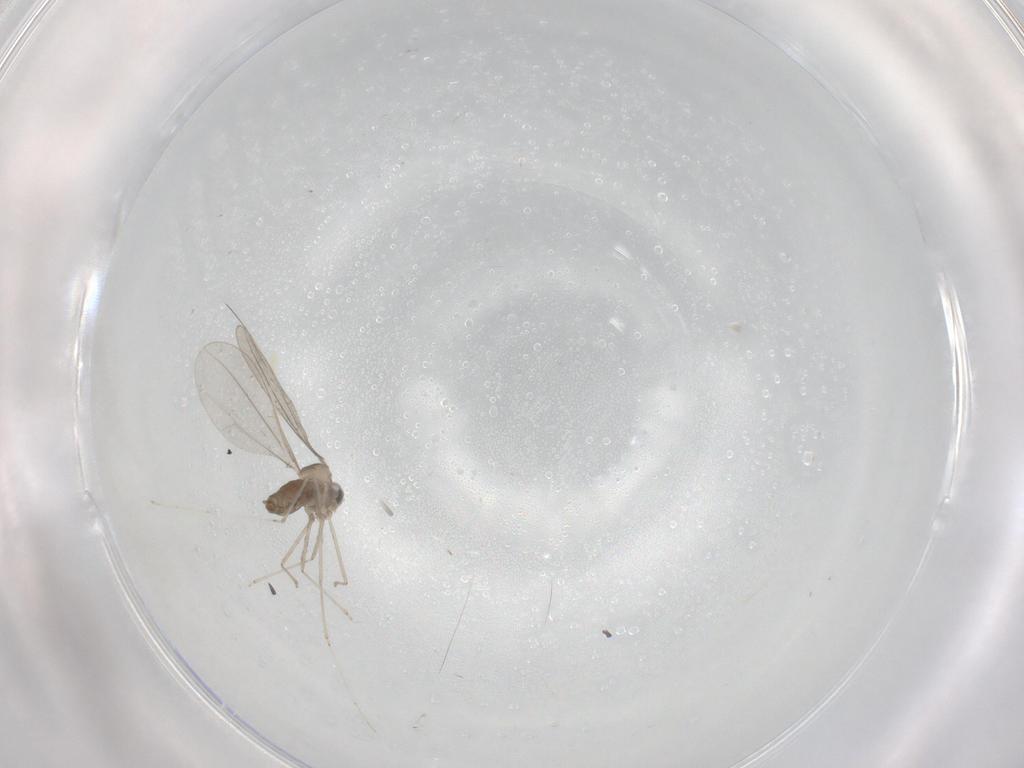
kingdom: Animalia
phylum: Arthropoda
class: Insecta
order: Diptera
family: Cecidomyiidae
